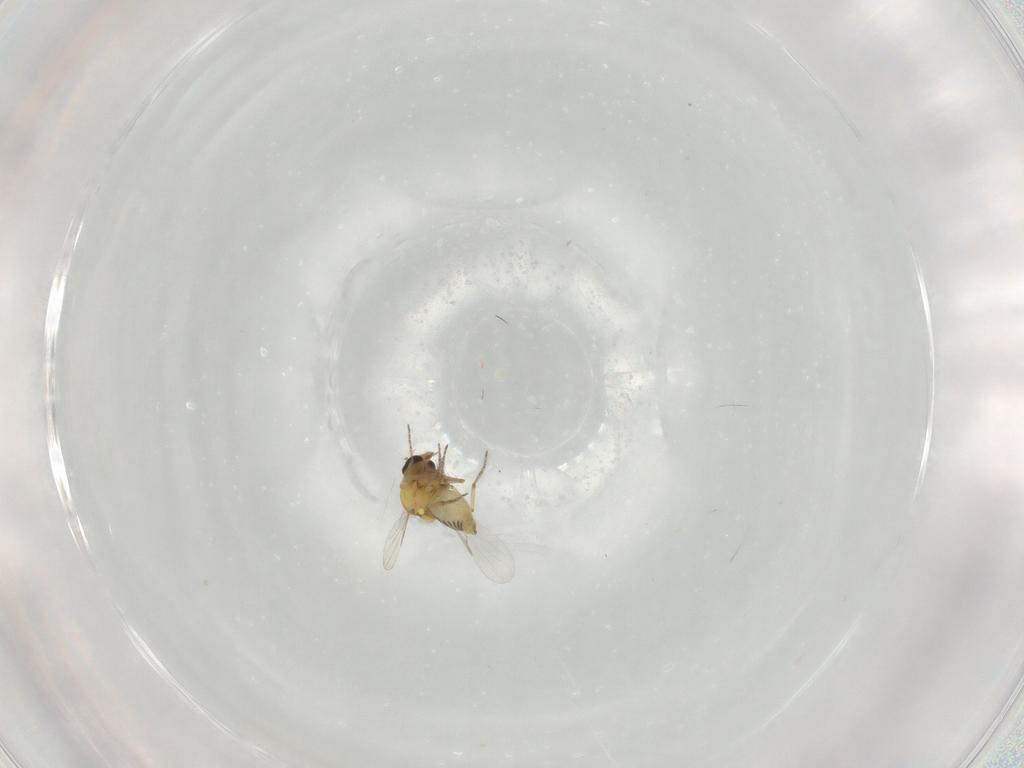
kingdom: Animalia
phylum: Arthropoda
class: Insecta
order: Diptera
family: Ceratopogonidae
